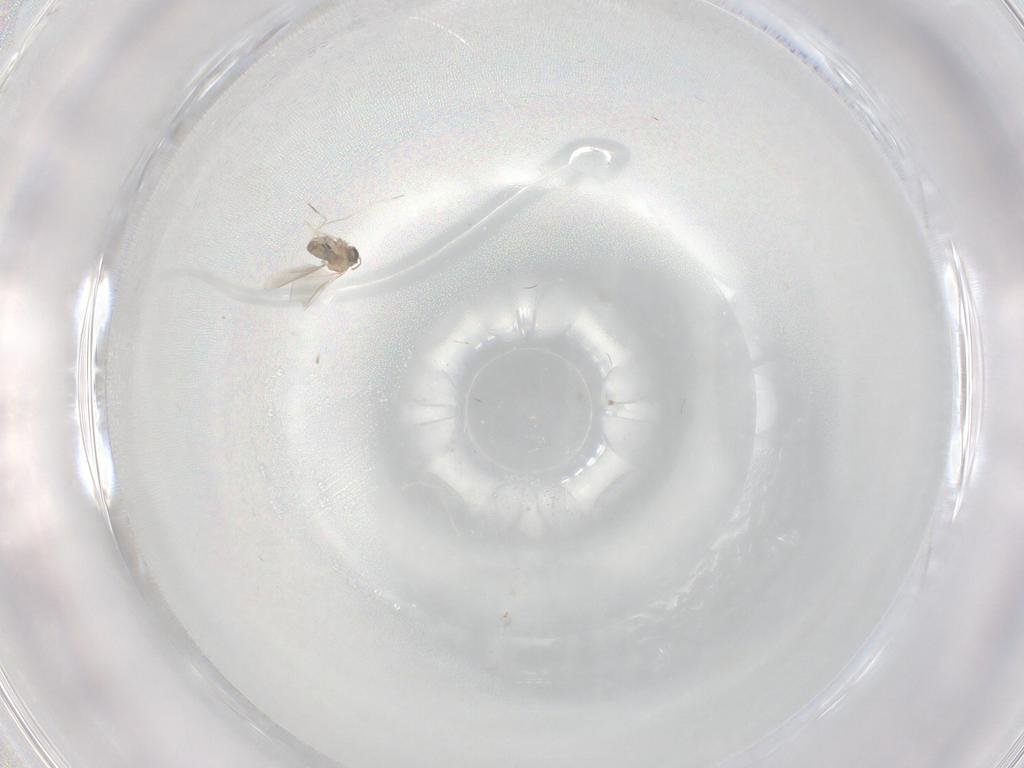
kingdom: Animalia
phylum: Arthropoda
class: Insecta
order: Diptera
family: Cecidomyiidae
